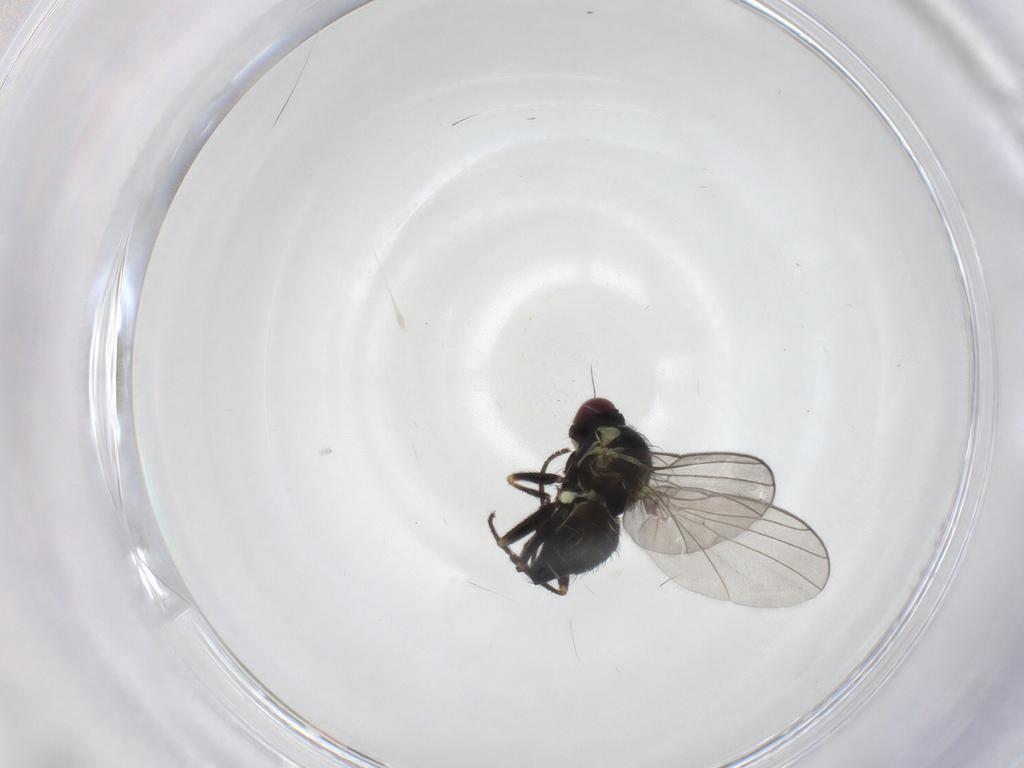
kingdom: Animalia
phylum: Arthropoda
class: Insecta
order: Diptera
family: Agromyzidae
